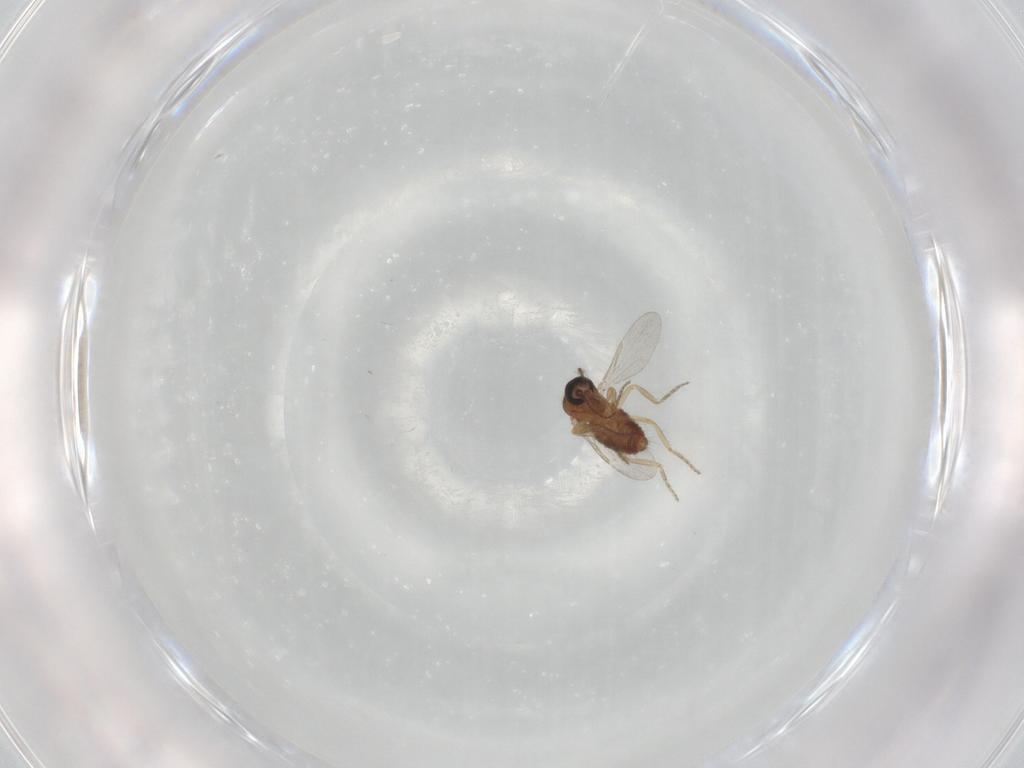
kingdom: Animalia
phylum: Arthropoda
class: Insecta
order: Diptera
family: Ceratopogonidae
